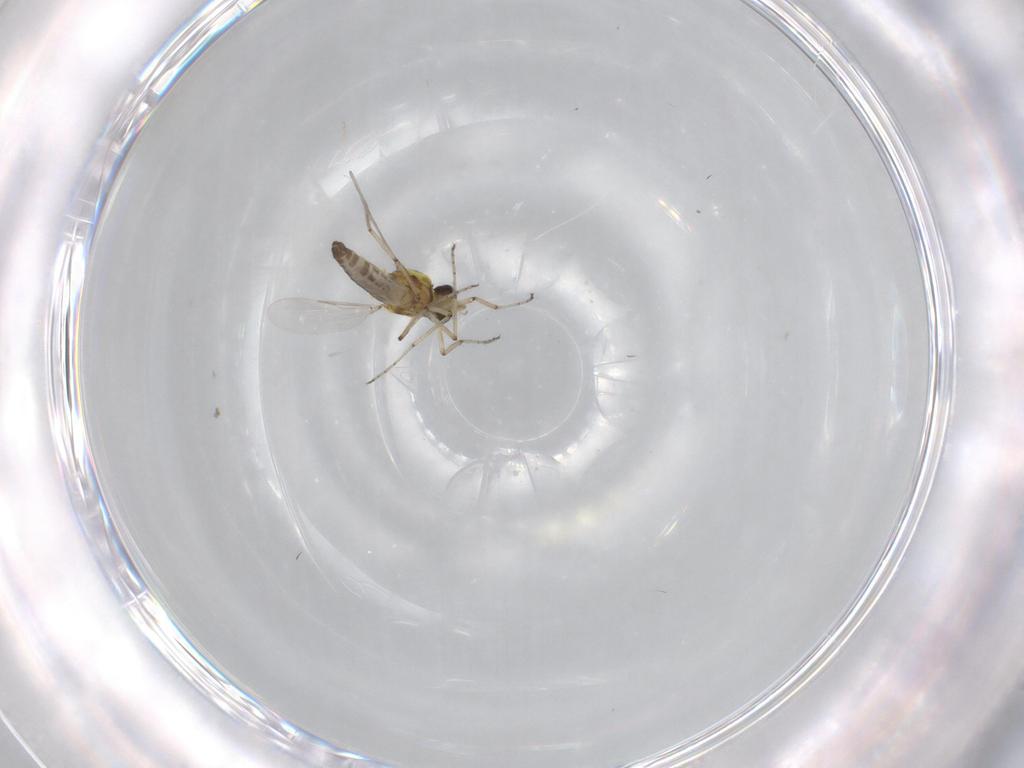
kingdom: Animalia
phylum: Arthropoda
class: Insecta
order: Diptera
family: Ceratopogonidae
